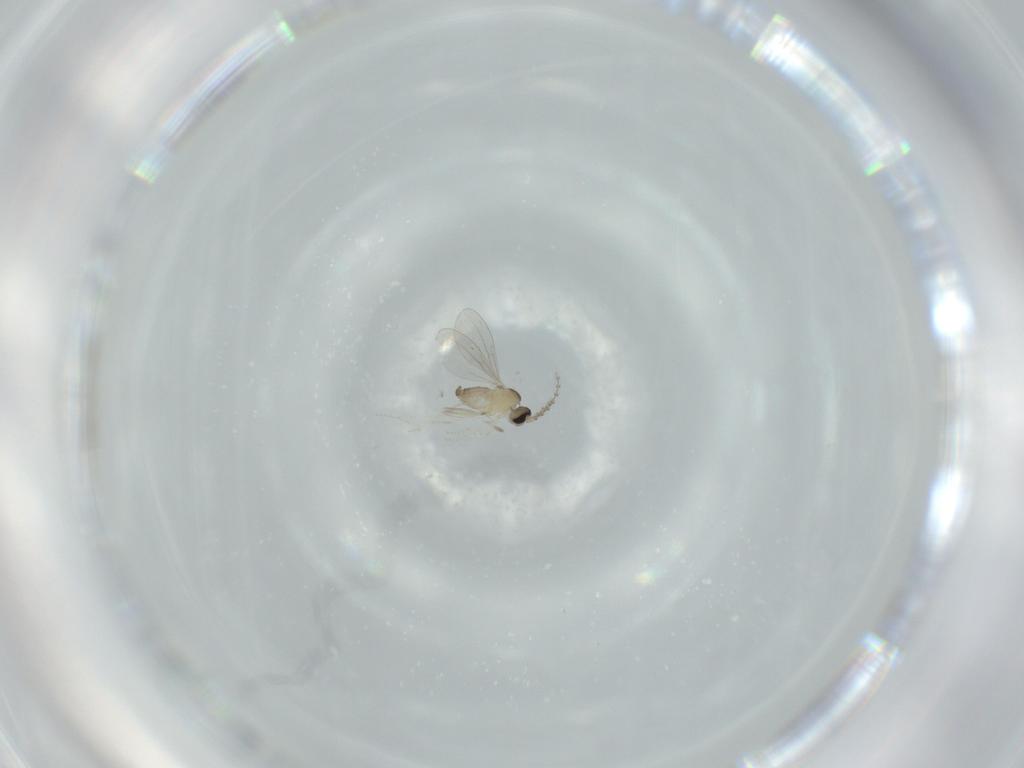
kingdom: Animalia
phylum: Arthropoda
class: Insecta
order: Diptera
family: Cecidomyiidae
